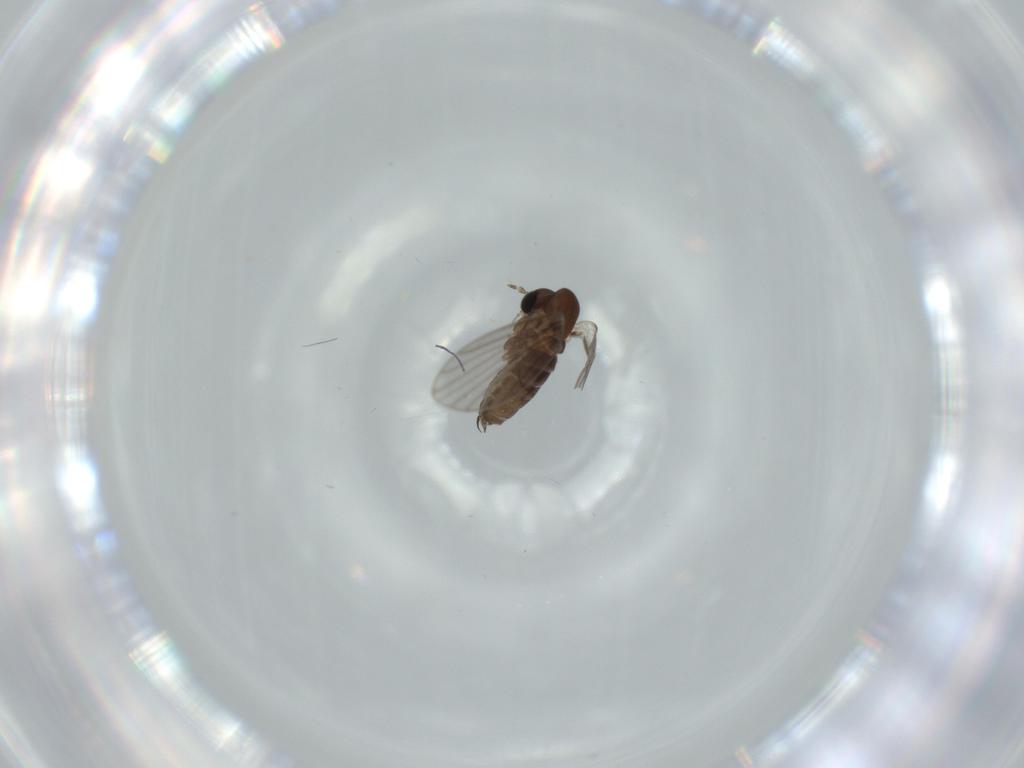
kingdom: Animalia
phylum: Arthropoda
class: Insecta
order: Diptera
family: Psychodidae
